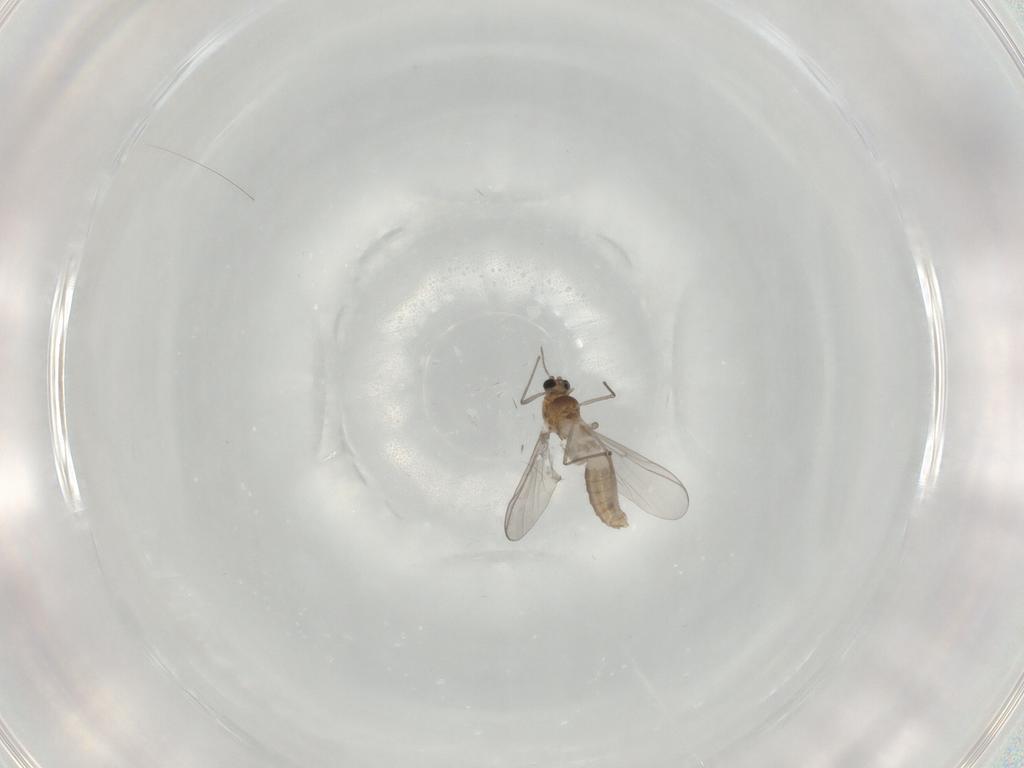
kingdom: Animalia
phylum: Arthropoda
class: Insecta
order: Diptera
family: Chironomidae
